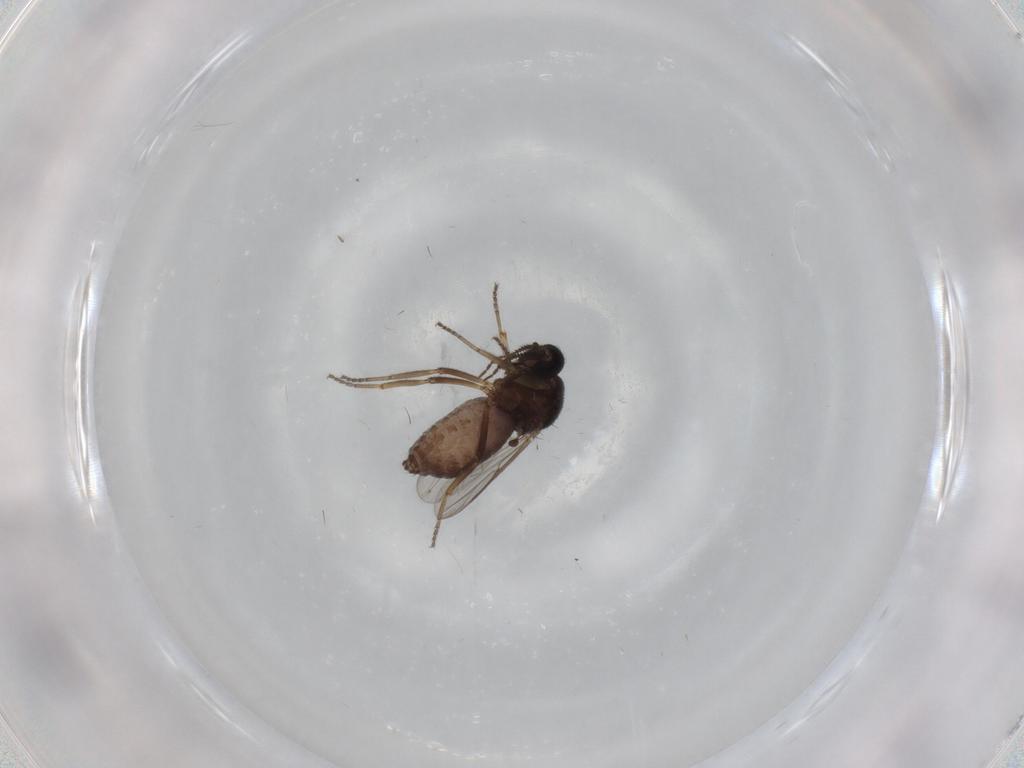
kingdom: Animalia
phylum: Arthropoda
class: Insecta
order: Diptera
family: Ceratopogonidae
